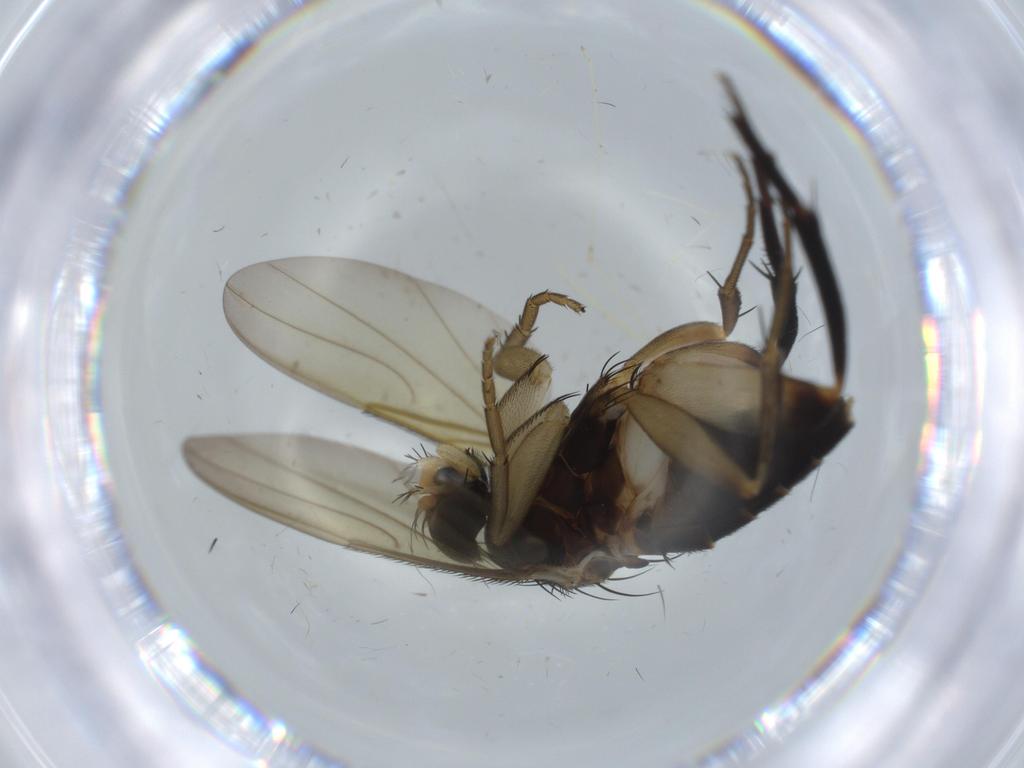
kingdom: Animalia
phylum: Arthropoda
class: Insecta
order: Diptera
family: Phoridae
